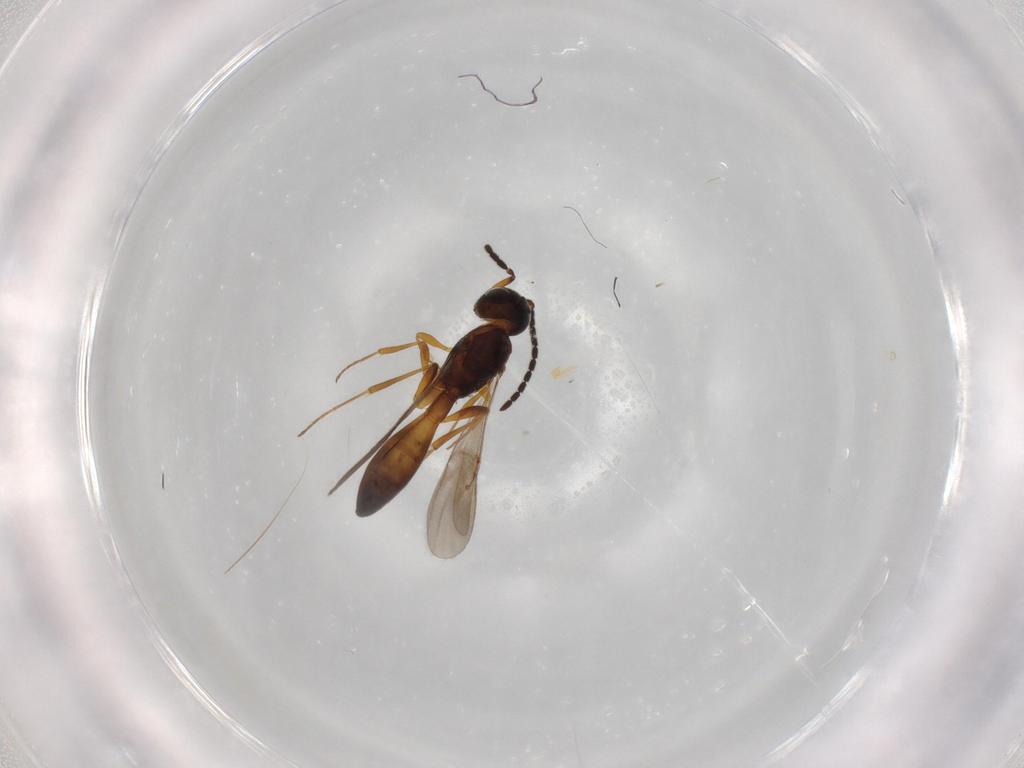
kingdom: Animalia
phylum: Arthropoda
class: Insecta
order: Hymenoptera
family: Scelionidae
